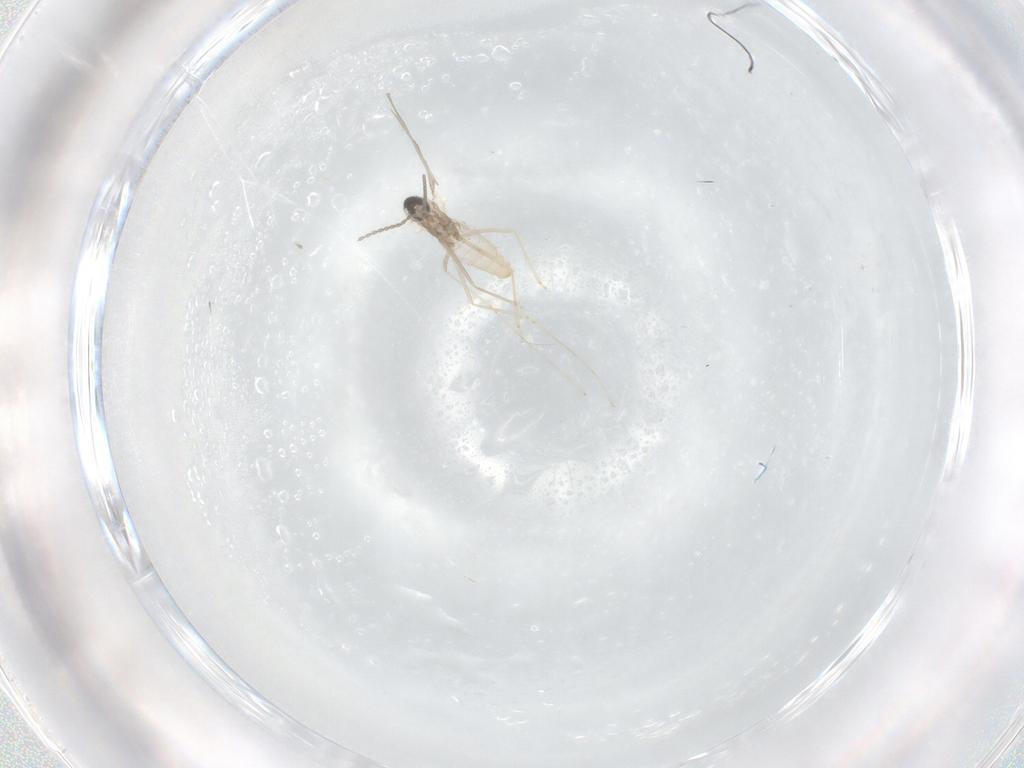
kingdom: Animalia
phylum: Arthropoda
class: Insecta
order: Diptera
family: Cecidomyiidae
